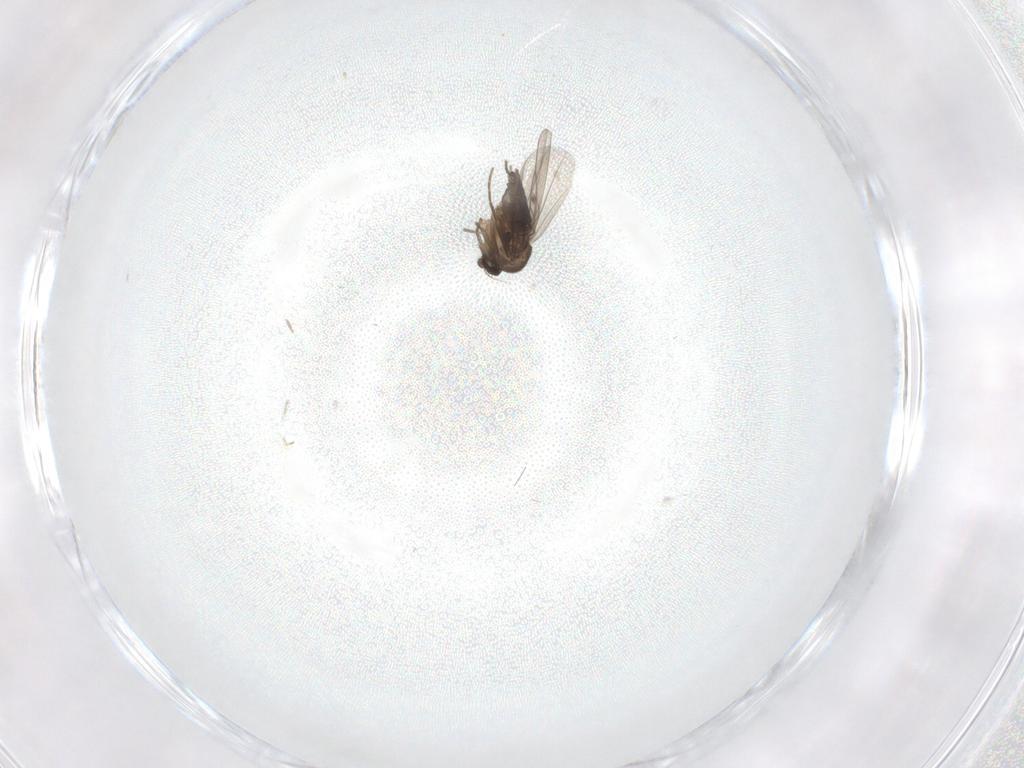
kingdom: Animalia
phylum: Arthropoda
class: Insecta
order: Diptera
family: Phoridae
